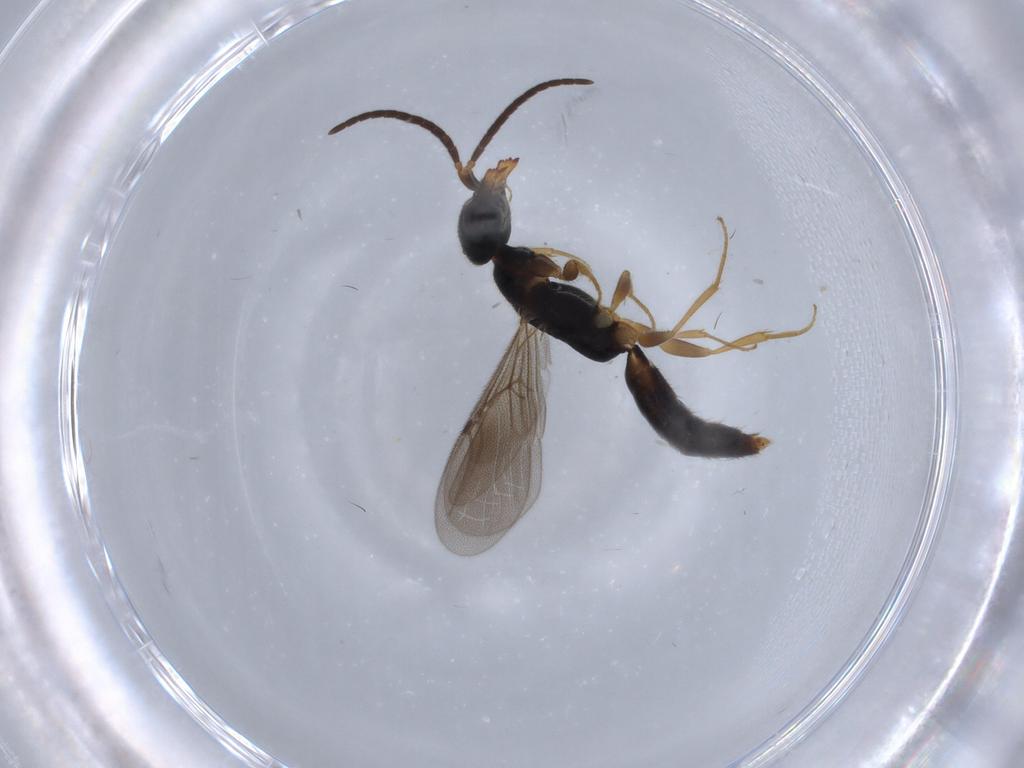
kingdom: Animalia
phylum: Arthropoda
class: Insecta
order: Hymenoptera
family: Bethylidae
